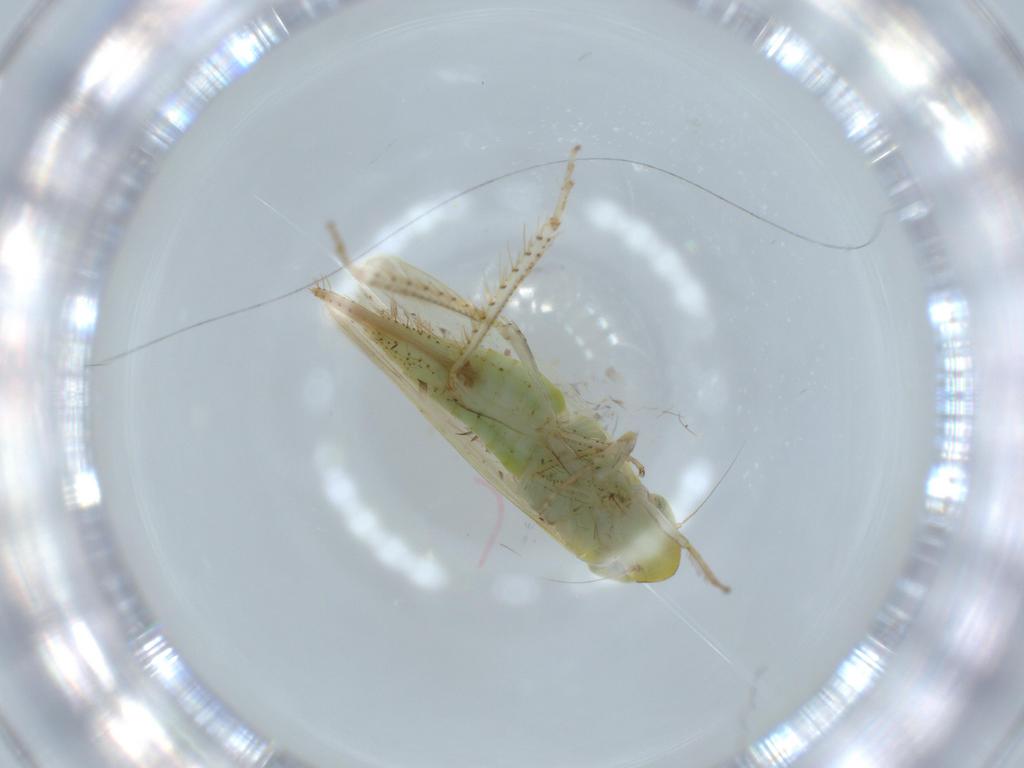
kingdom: Animalia
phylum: Arthropoda
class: Insecta
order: Hemiptera
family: Cicadellidae
